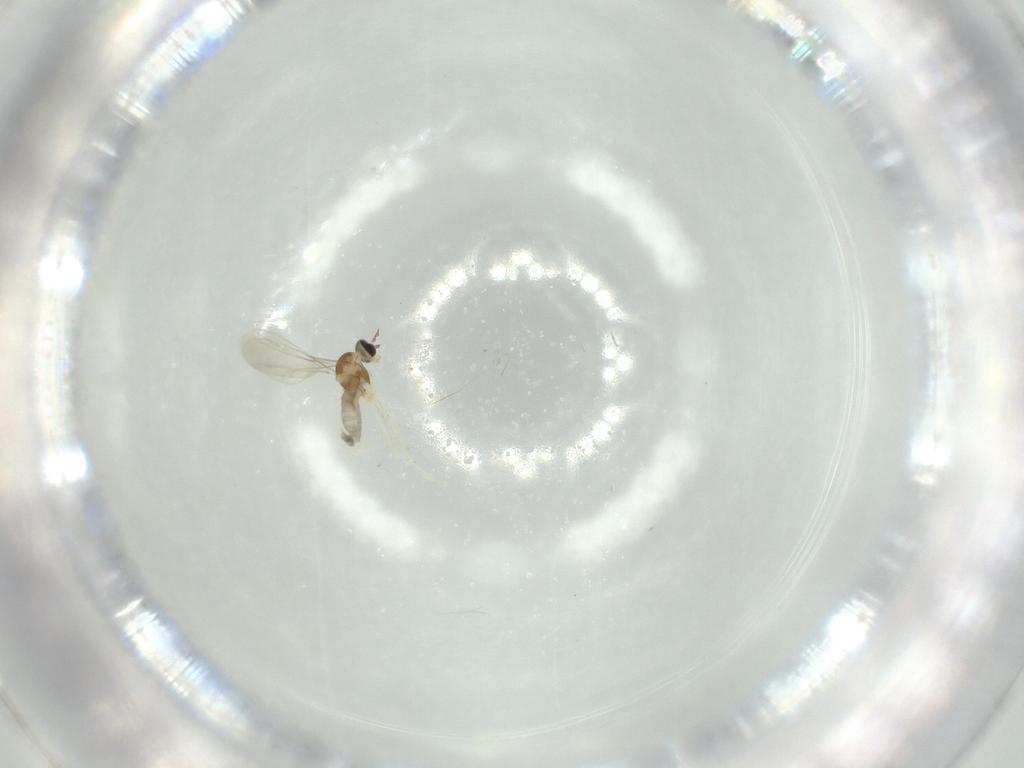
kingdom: Animalia
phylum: Arthropoda
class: Insecta
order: Diptera
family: Cecidomyiidae
